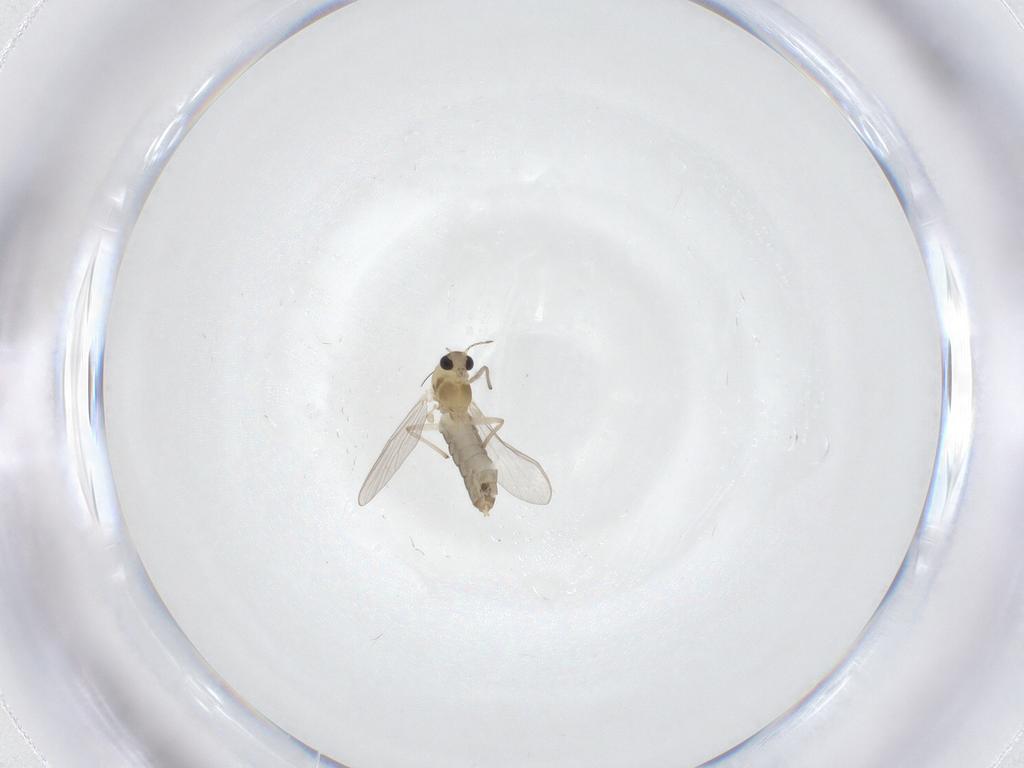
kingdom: Animalia
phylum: Arthropoda
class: Insecta
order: Diptera
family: Chironomidae
